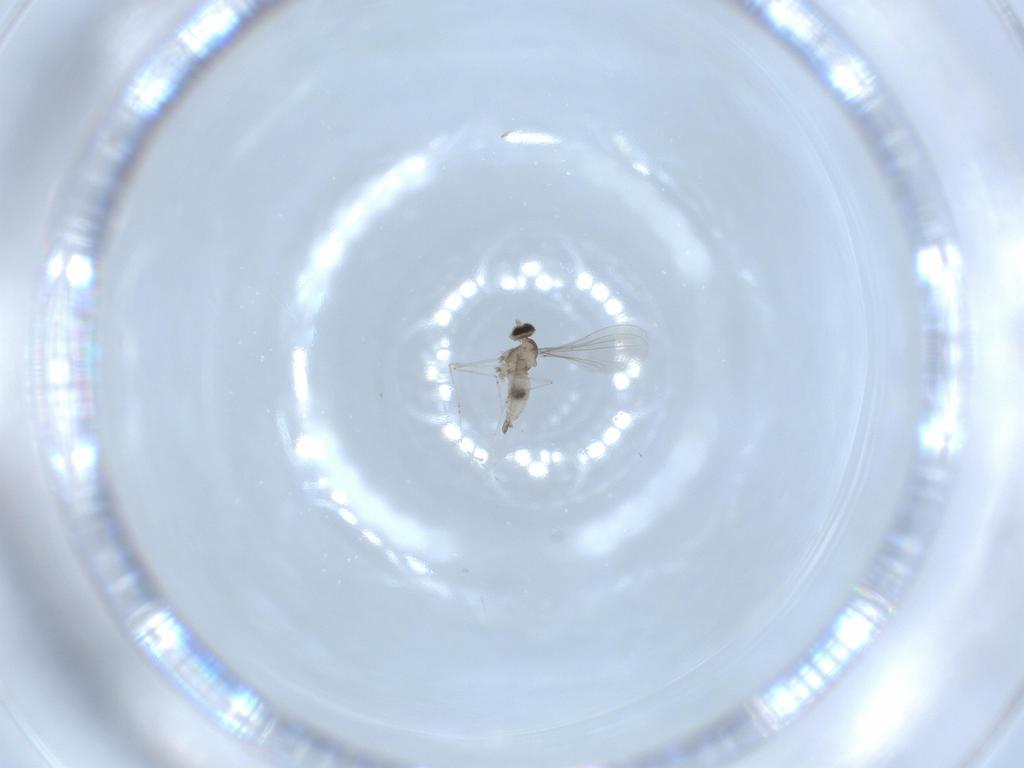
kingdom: Animalia
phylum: Arthropoda
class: Insecta
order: Diptera
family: Cecidomyiidae
